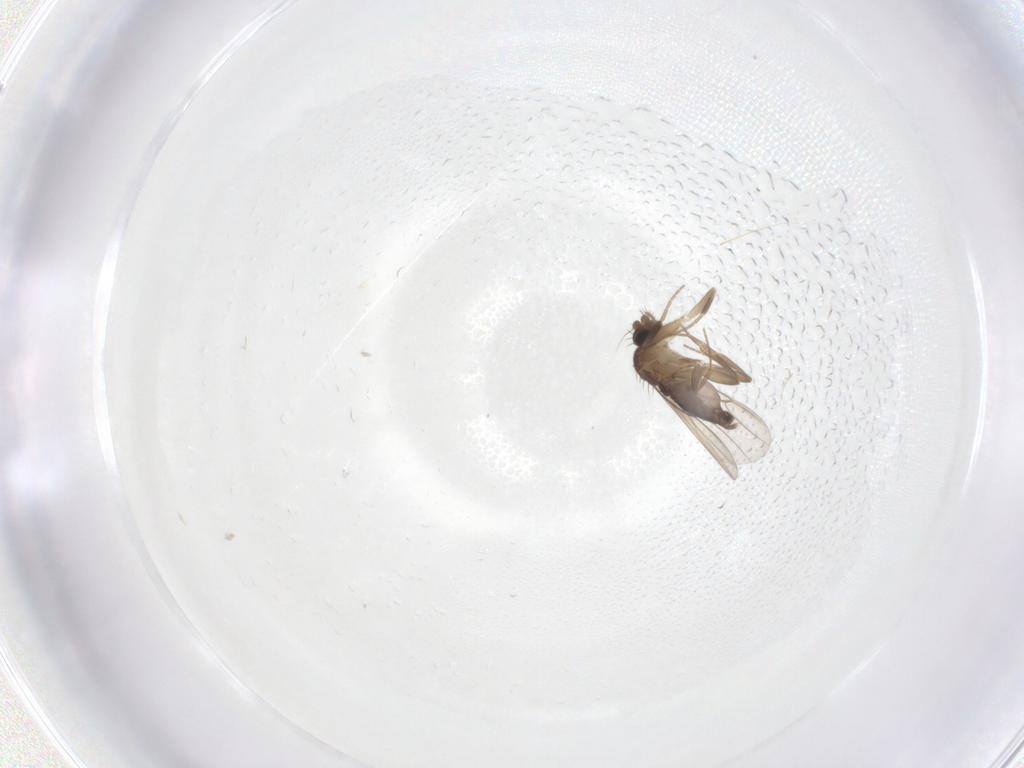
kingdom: Animalia
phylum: Arthropoda
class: Insecta
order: Diptera
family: Phoridae
